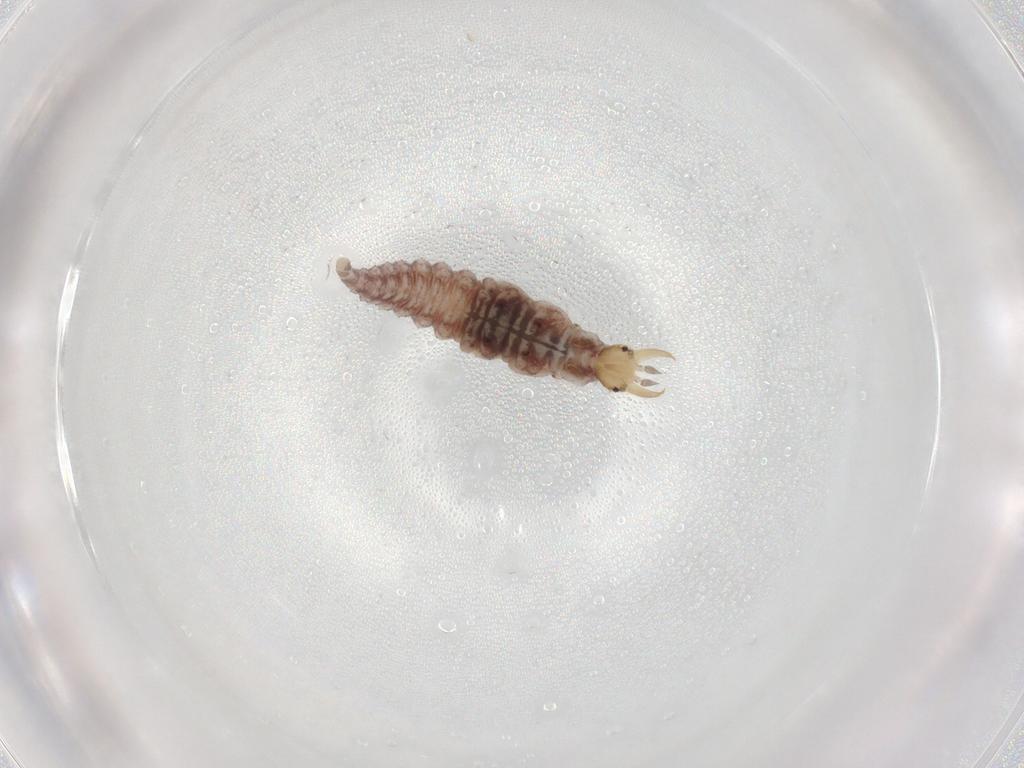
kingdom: Animalia
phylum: Arthropoda
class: Insecta
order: Neuroptera
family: Hemerobiidae
